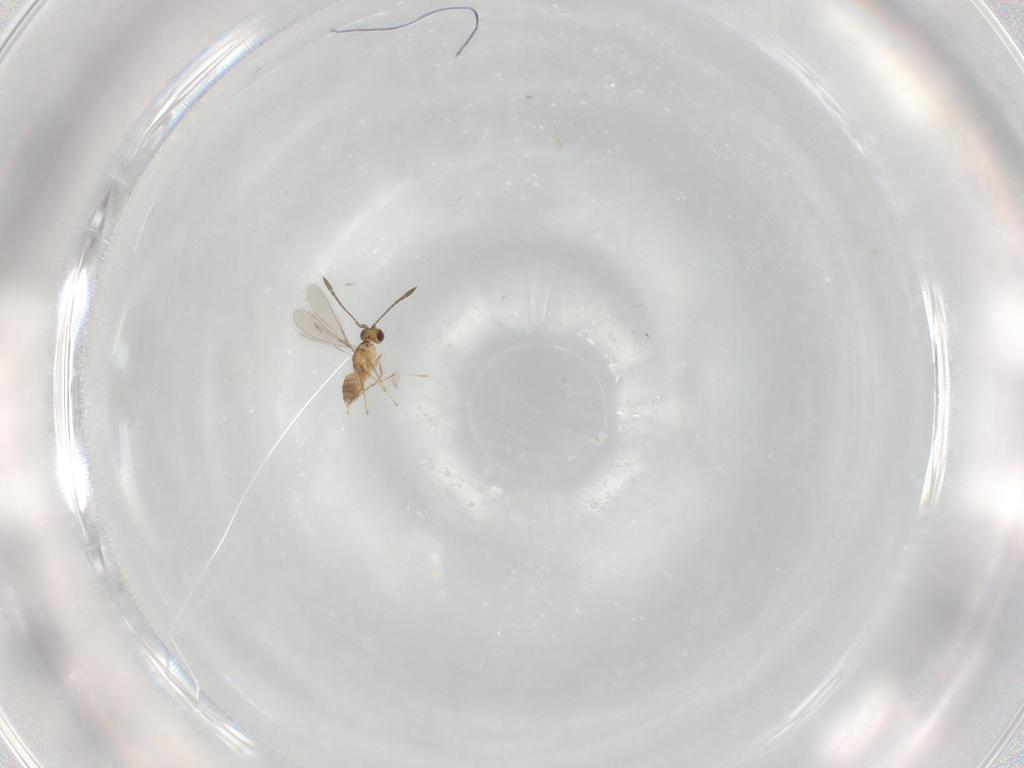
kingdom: Animalia
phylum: Arthropoda
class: Insecta
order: Hymenoptera
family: Mymaridae
